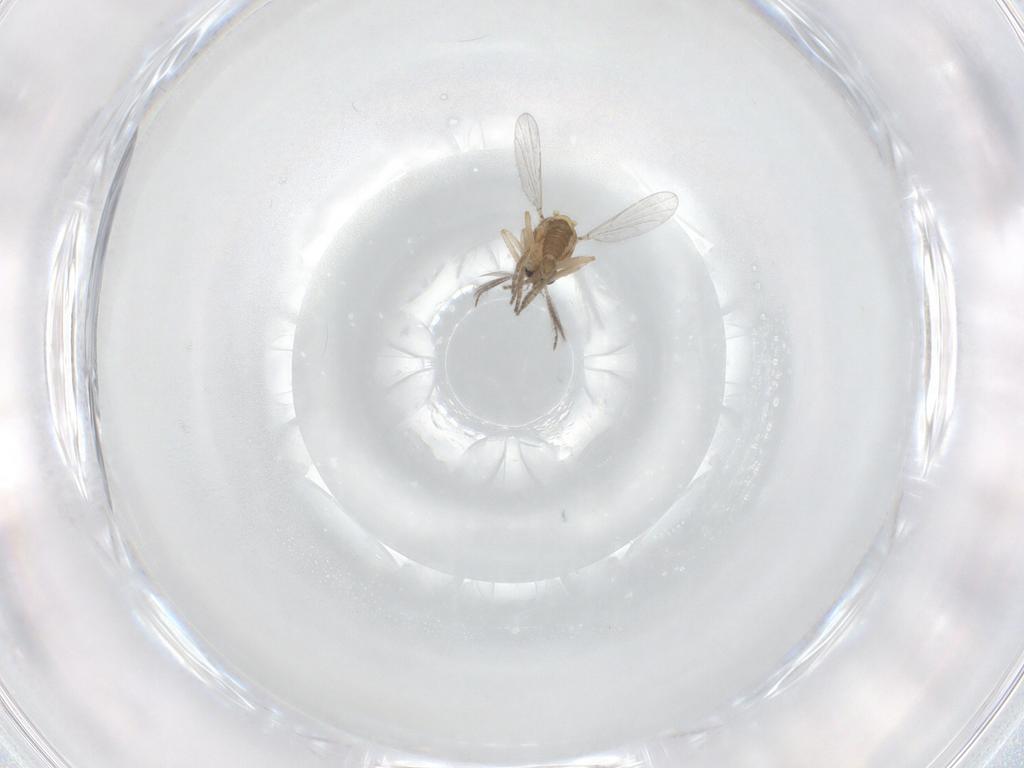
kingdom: Animalia
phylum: Arthropoda
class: Insecta
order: Diptera
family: Ceratopogonidae
